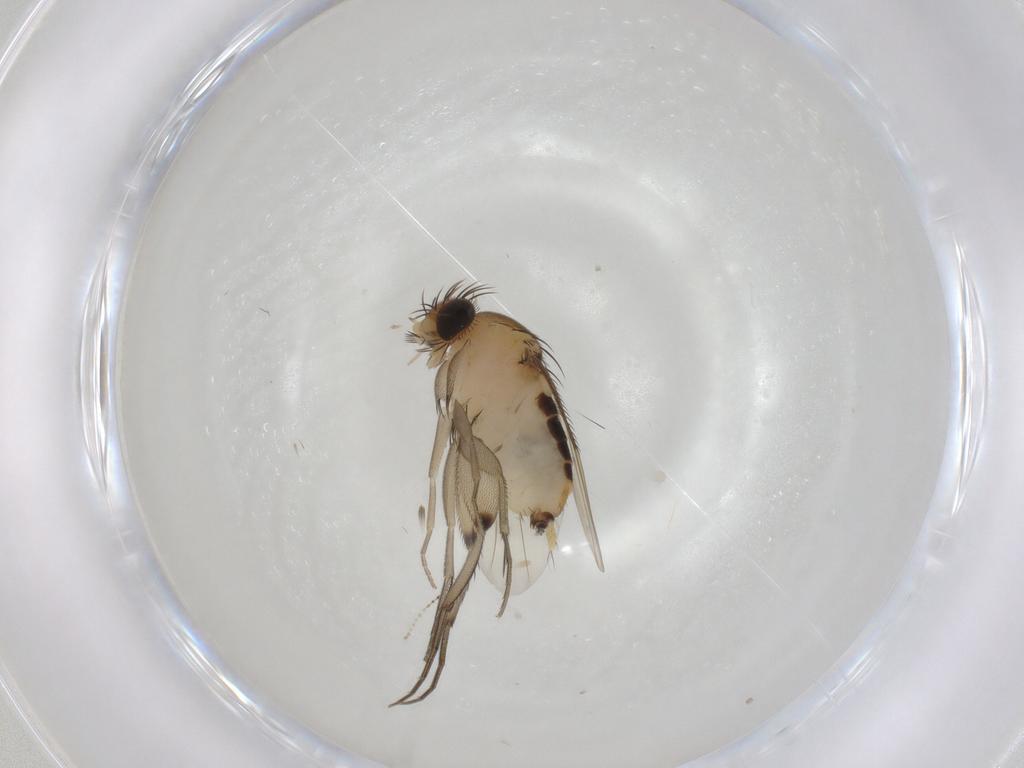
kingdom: Animalia
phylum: Arthropoda
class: Insecta
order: Diptera
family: Phoridae
